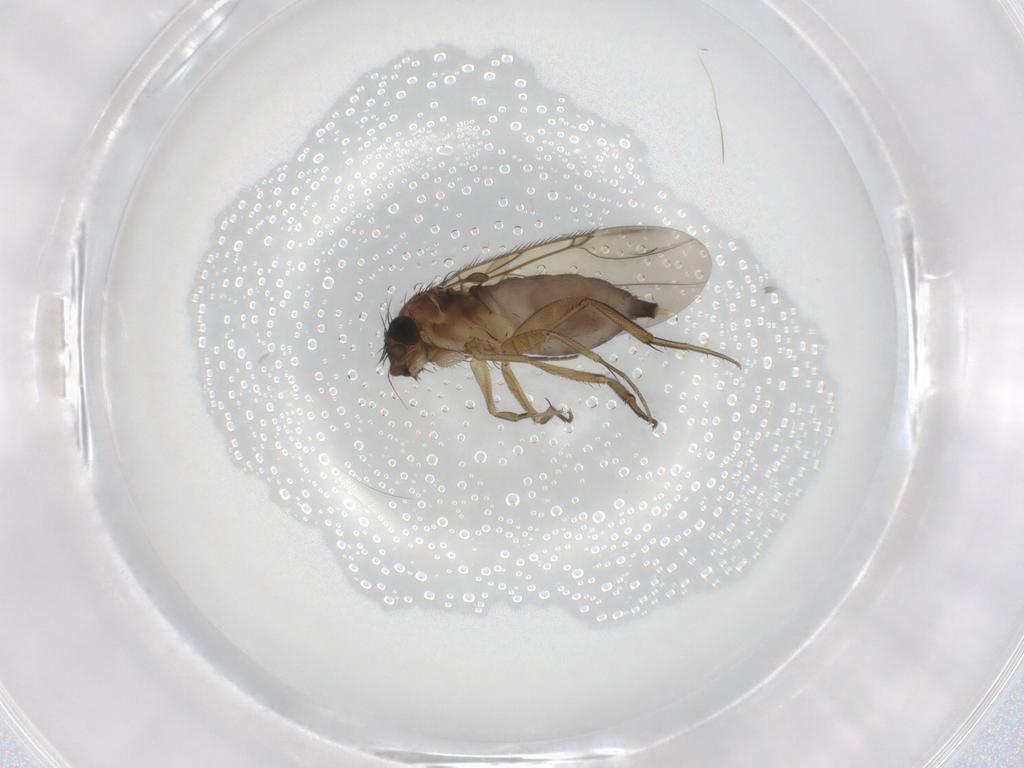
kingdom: Animalia
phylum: Arthropoda
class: Insecta
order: Diptera
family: Phoridae
